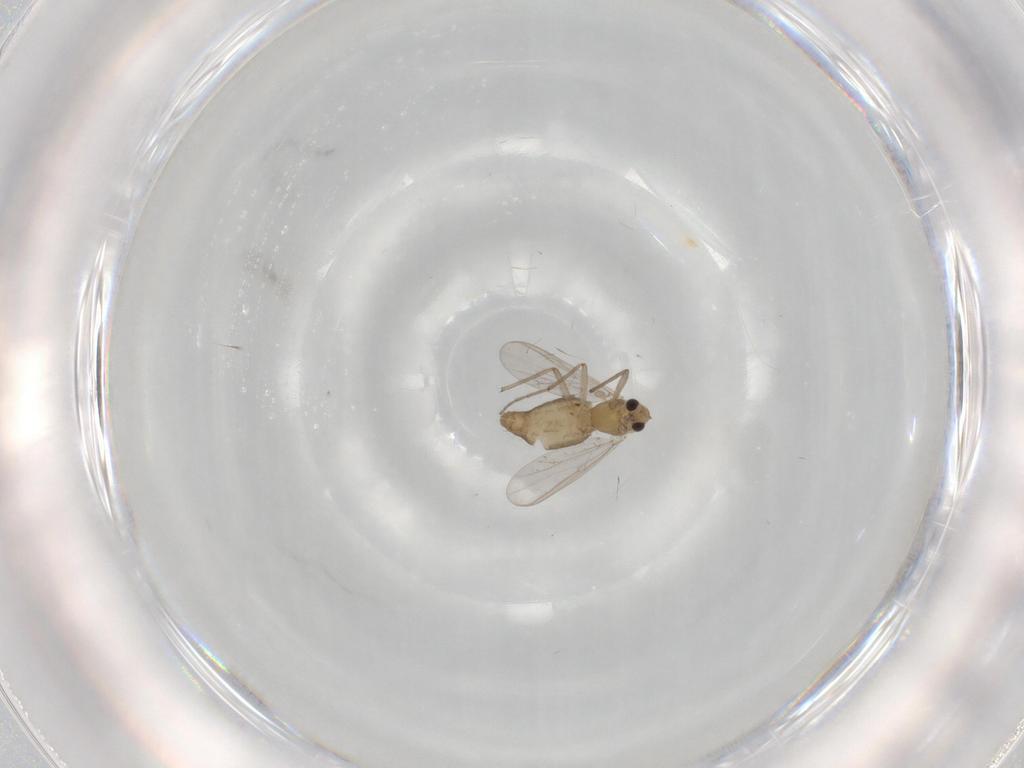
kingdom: Animalia
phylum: Arthropoda
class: Insecta
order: Diptera
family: Chironomidae
